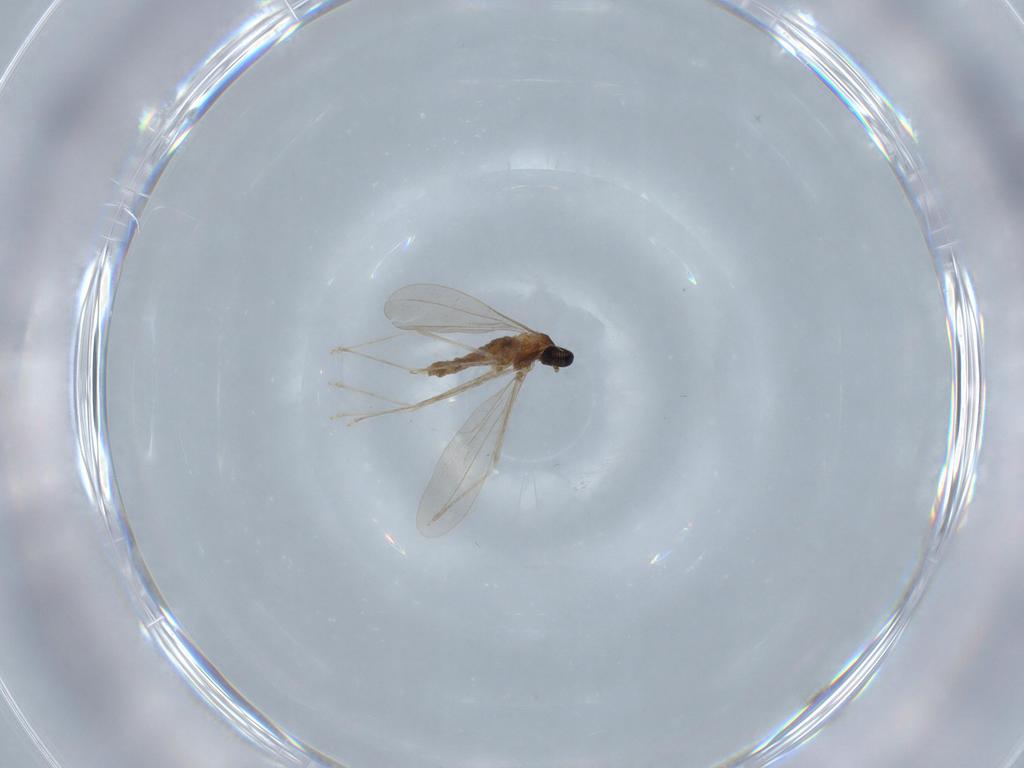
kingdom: Animalia
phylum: Arthropoda
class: Insecta
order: Diptera
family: Cecidomyiidae
